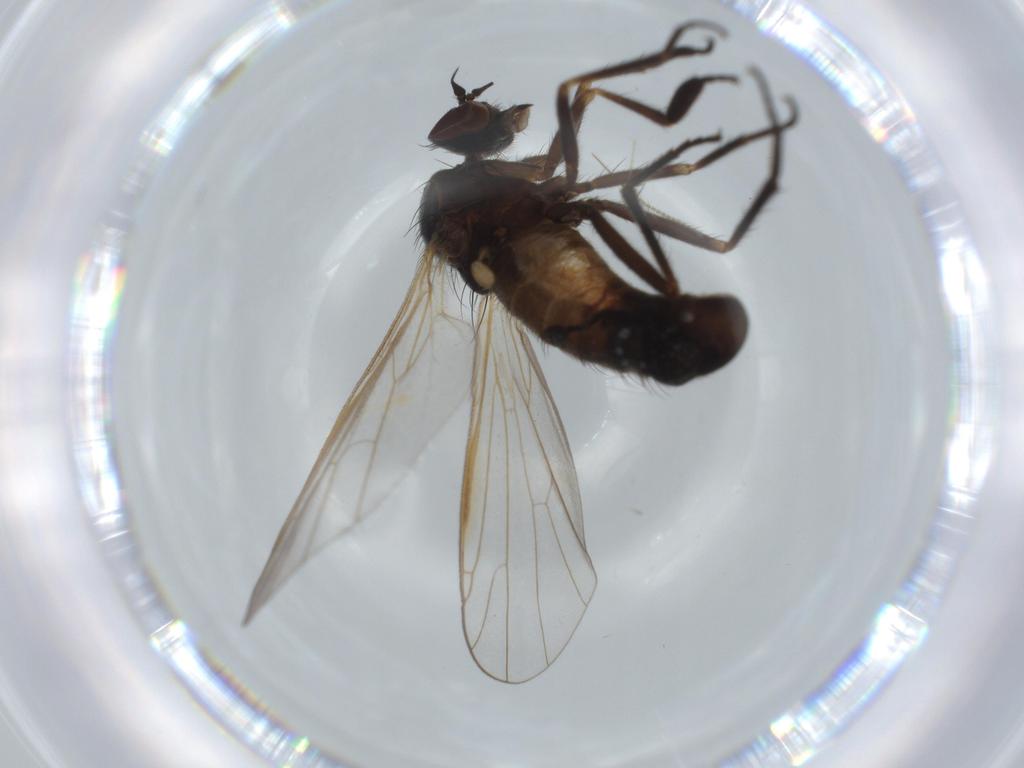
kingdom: Animalia
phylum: Arthropoda
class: Insecta
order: Diptera
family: Empididae
